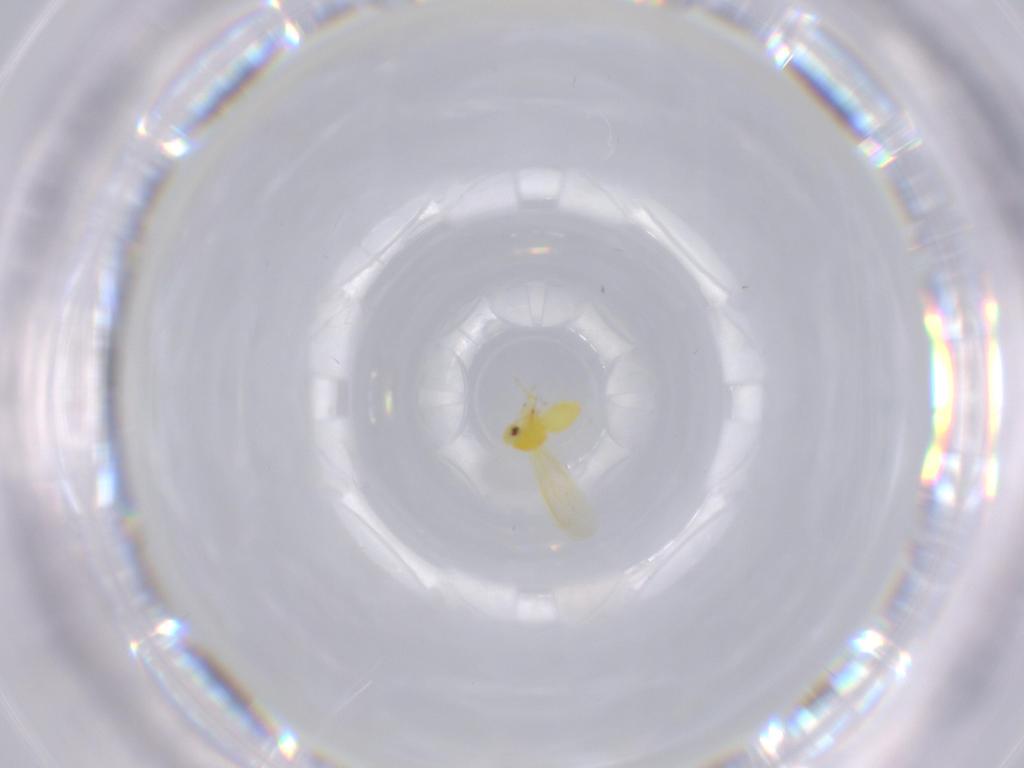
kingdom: Animalia
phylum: Arthropoda
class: Insecta
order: Hemiptera
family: Aleyrodidae
